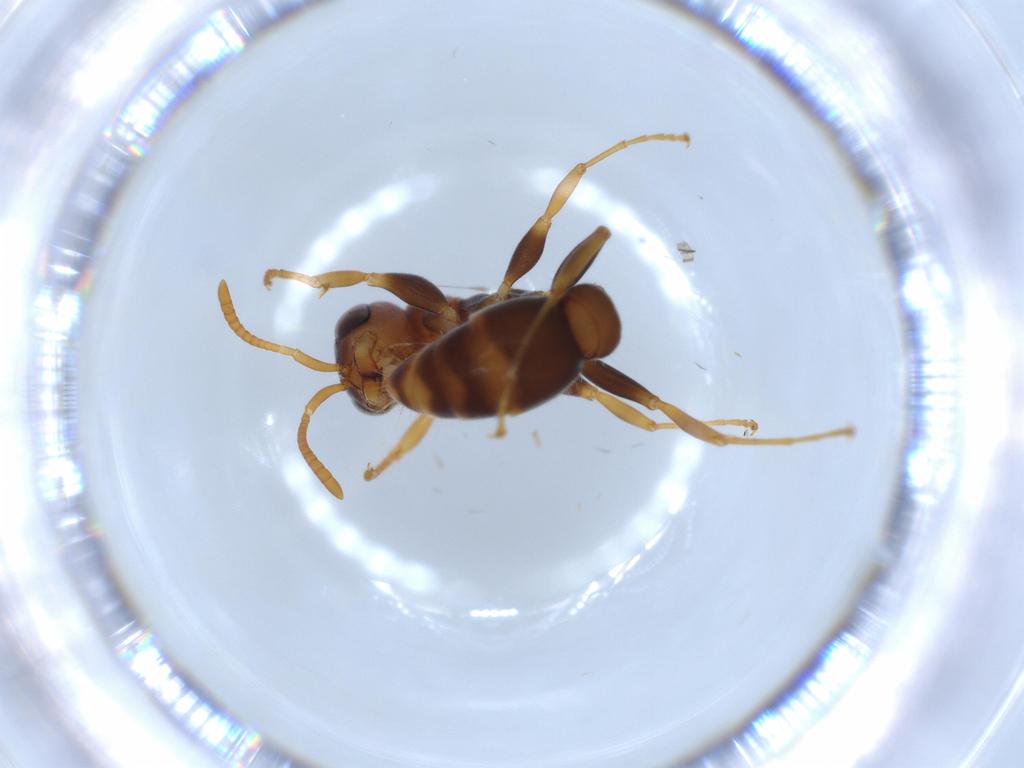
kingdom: Animalia
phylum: Arthropoda
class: Insecta
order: Hymenoptera
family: Formicidae
